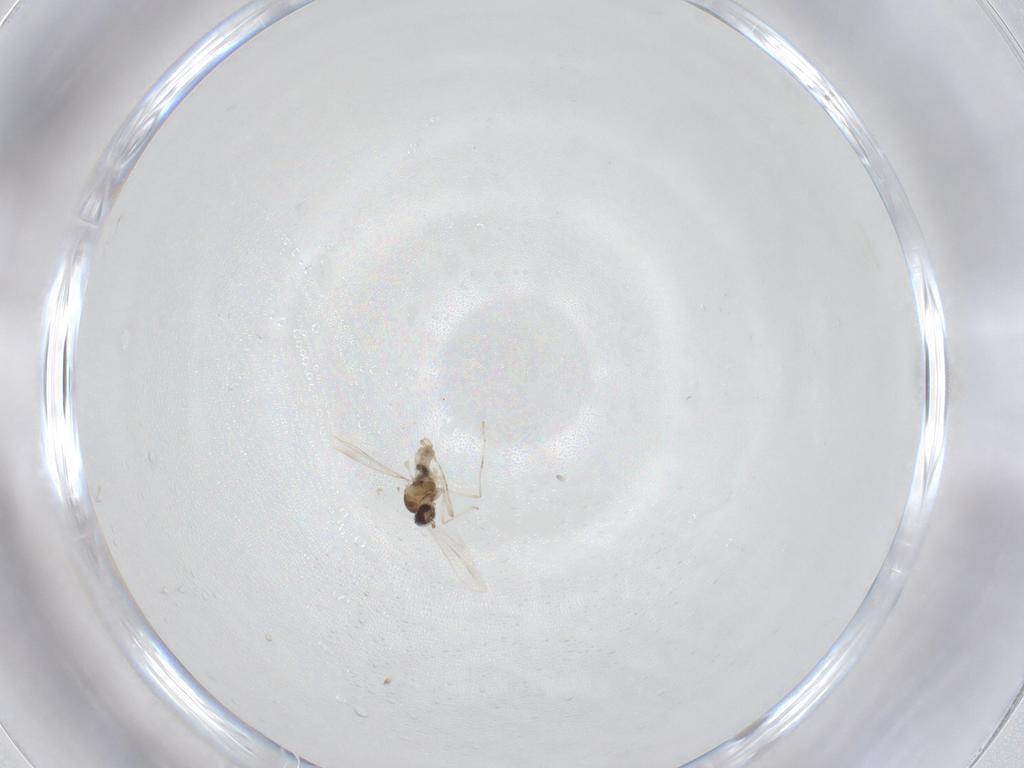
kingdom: Animalia
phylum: Arthropoda
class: Insecta
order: Diptera
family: Cecidomyiidae
